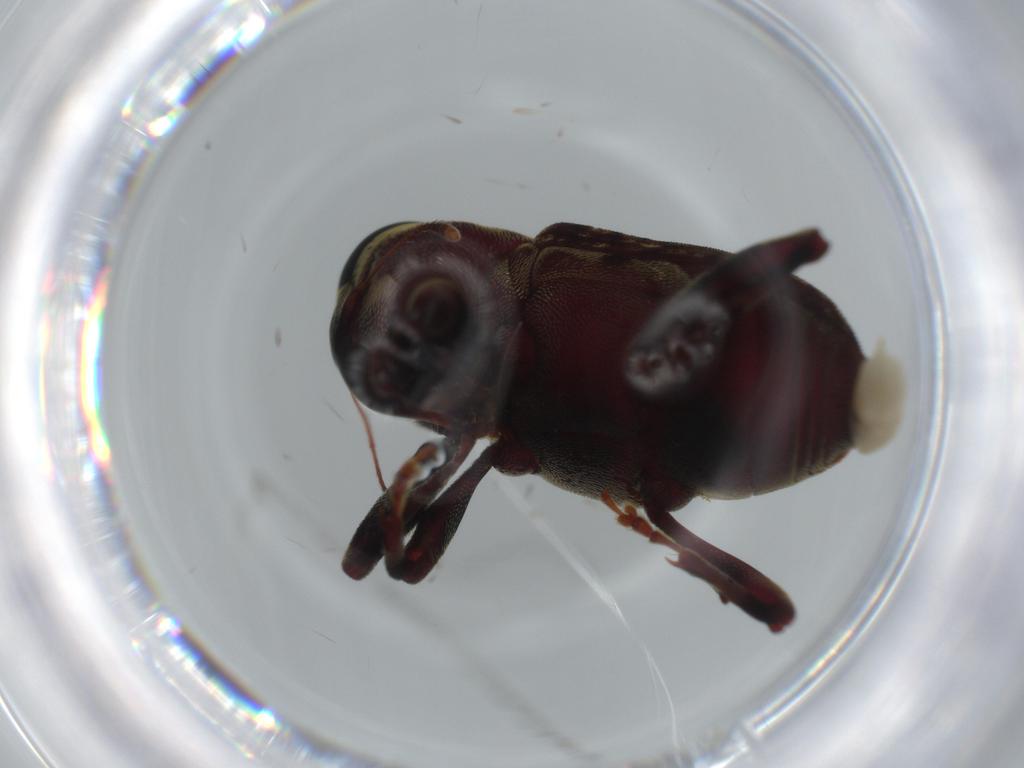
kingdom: Animalia
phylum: Arthropoda
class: Insecta
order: Coleoptera
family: Curculionidae
